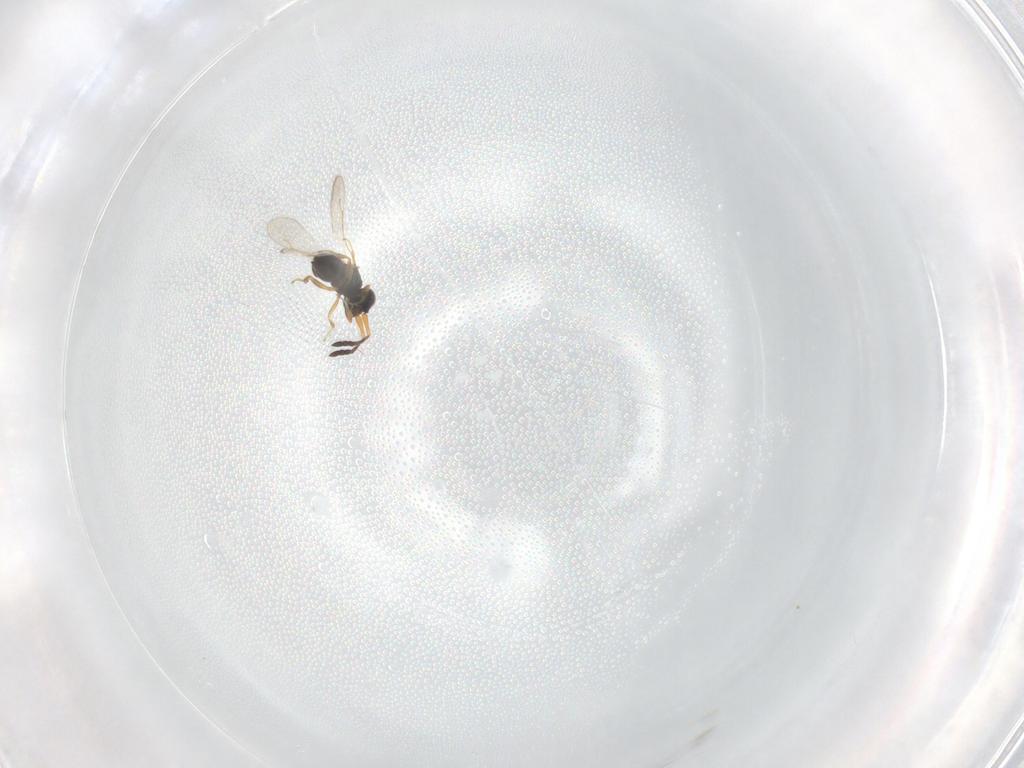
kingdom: Animalia
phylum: Arthropoda
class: Insecta
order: Hymenoptera
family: Ceraphronidae
